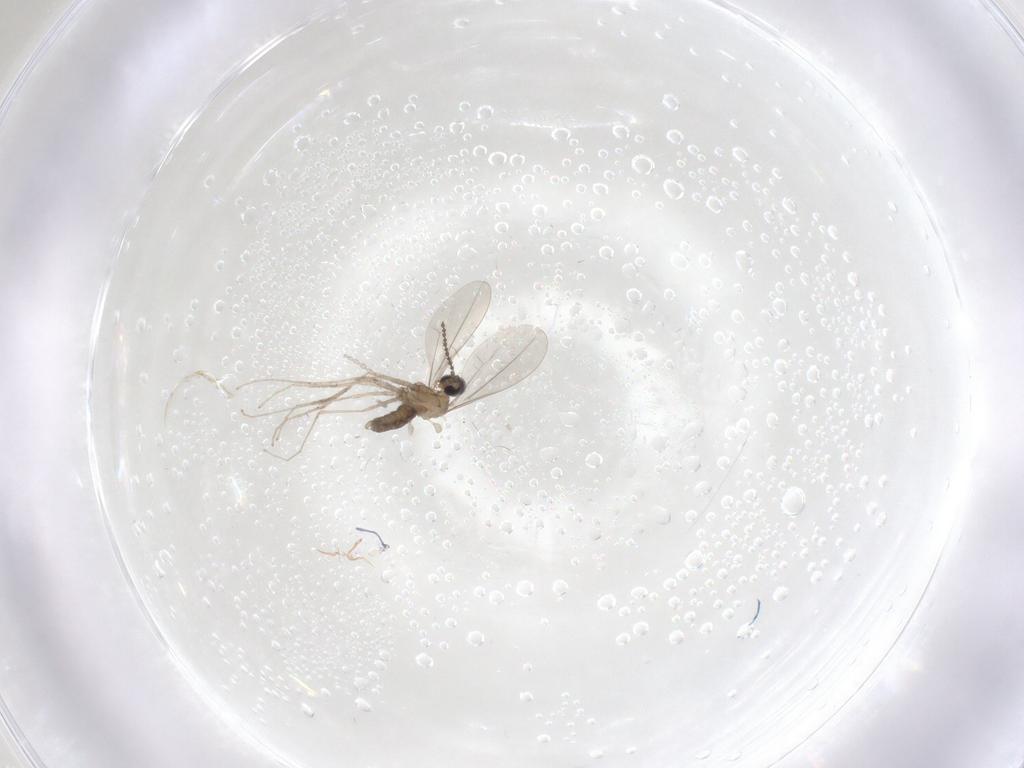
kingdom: Animalia
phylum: Arthropoda
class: Insecta
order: Diptera
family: Cecidomyiidae
